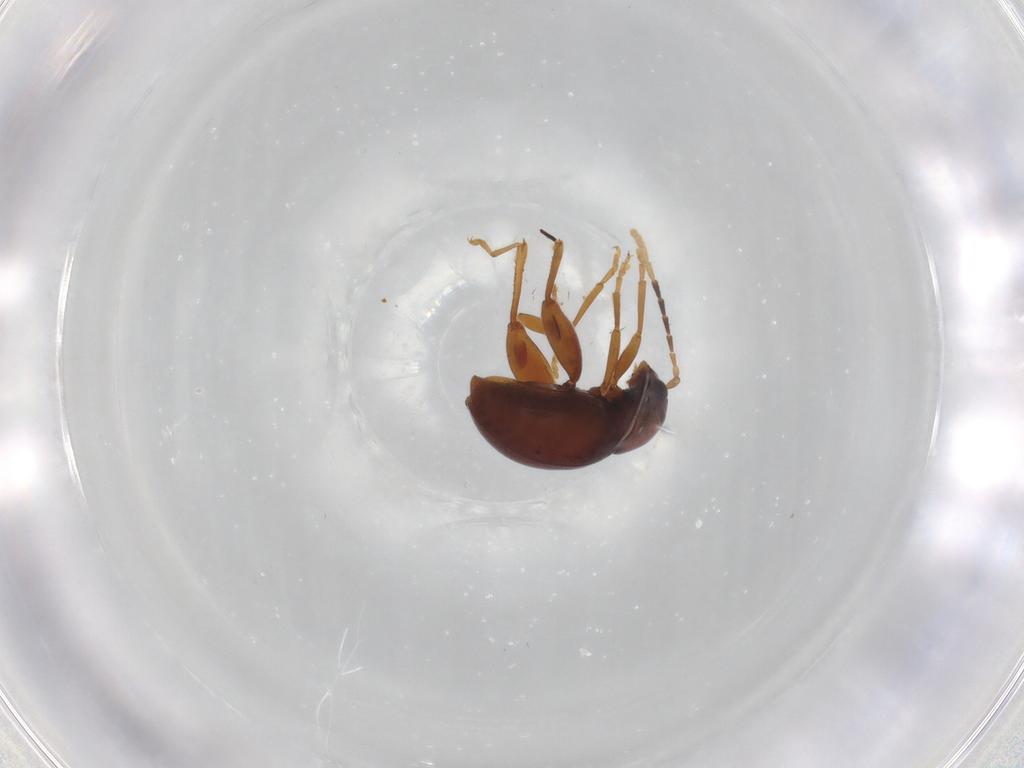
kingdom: Animalia
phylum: Arthropoda
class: Insecta
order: Coleoptera
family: Chrysomelidae
